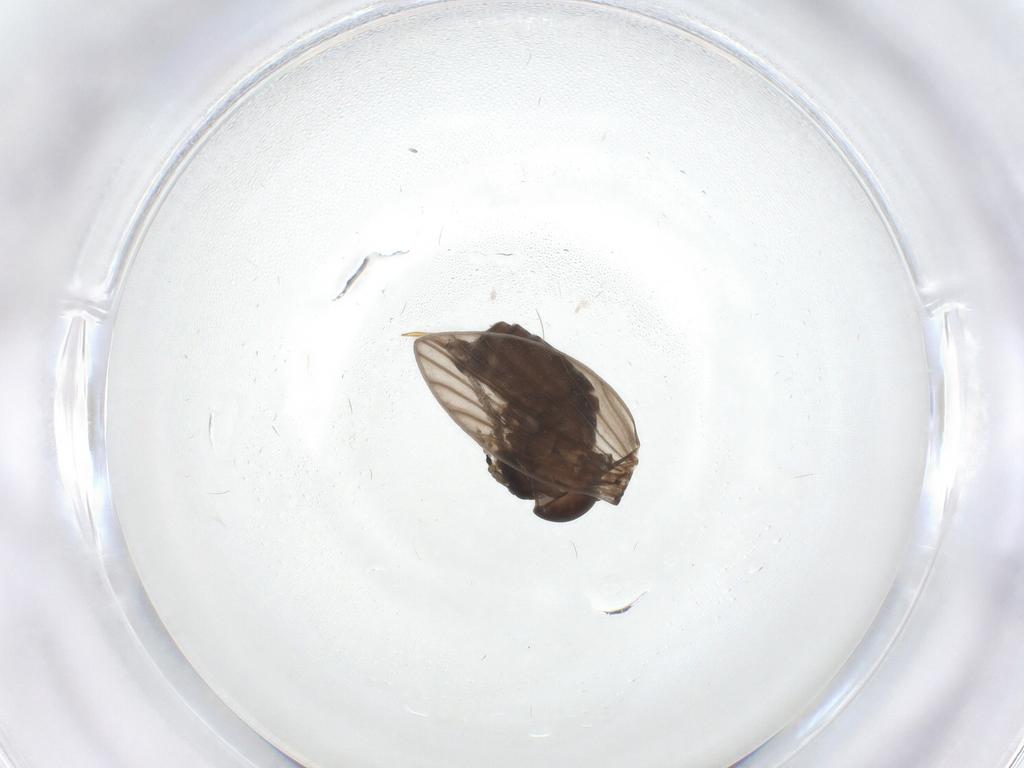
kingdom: Animalia
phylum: Arthropoda
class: Insecta
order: Diptera
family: Psychodidae
